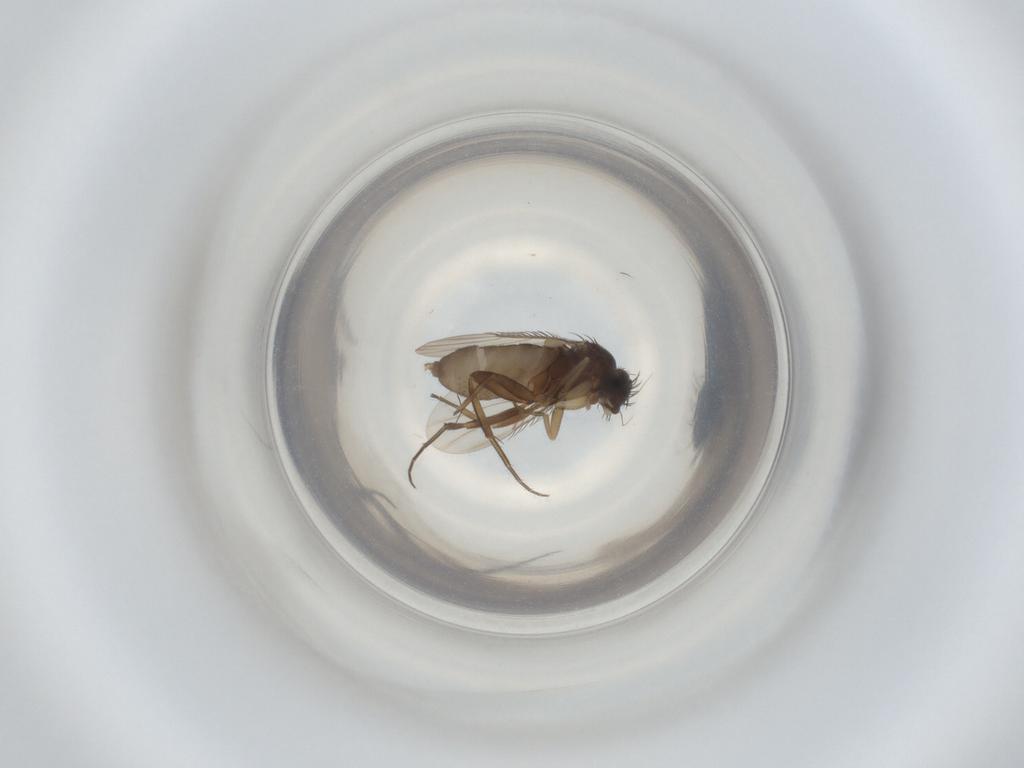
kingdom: Animalia
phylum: Arthropoda
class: Insecta
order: Diptera
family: Phoridae
